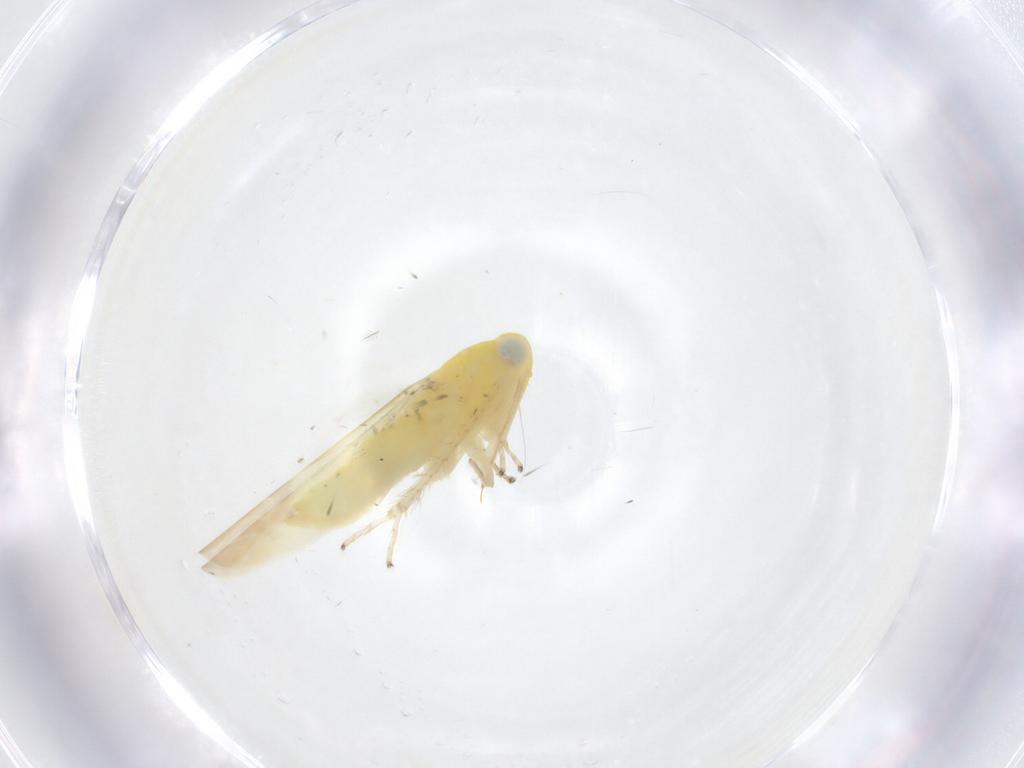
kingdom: Animalia
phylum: Arthropoda
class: Insecta
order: Hemiptera
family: Cicadellidae
